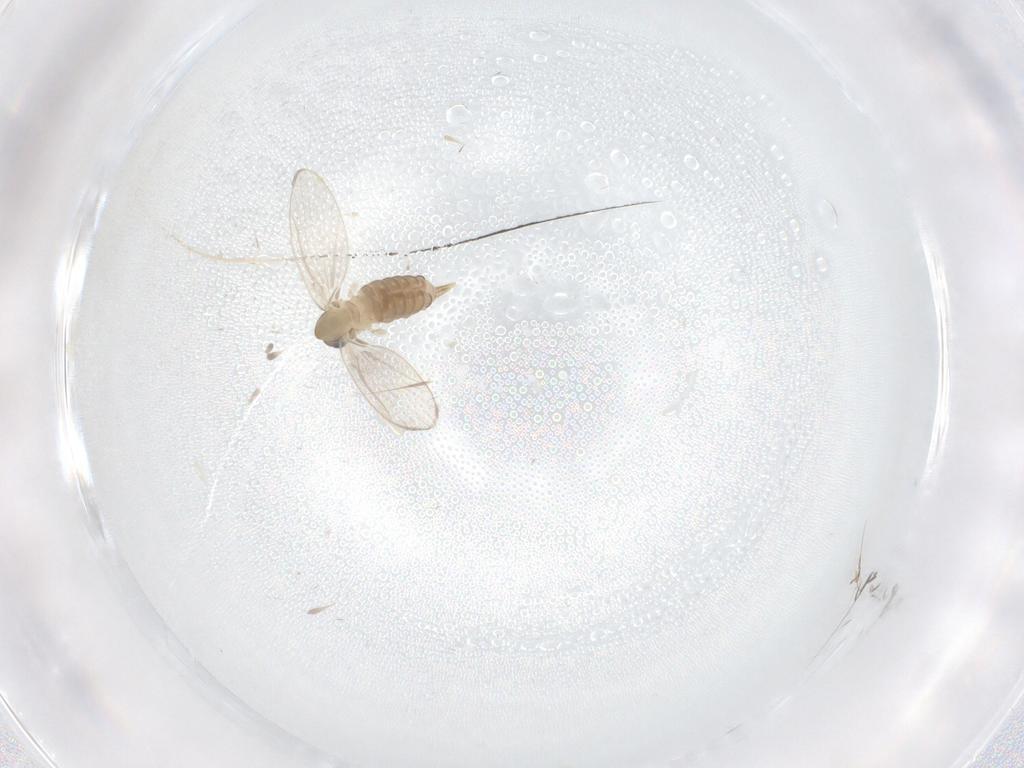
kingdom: Animalia
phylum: Arthropoda
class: Insecta
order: Diptera
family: Psychodidae
